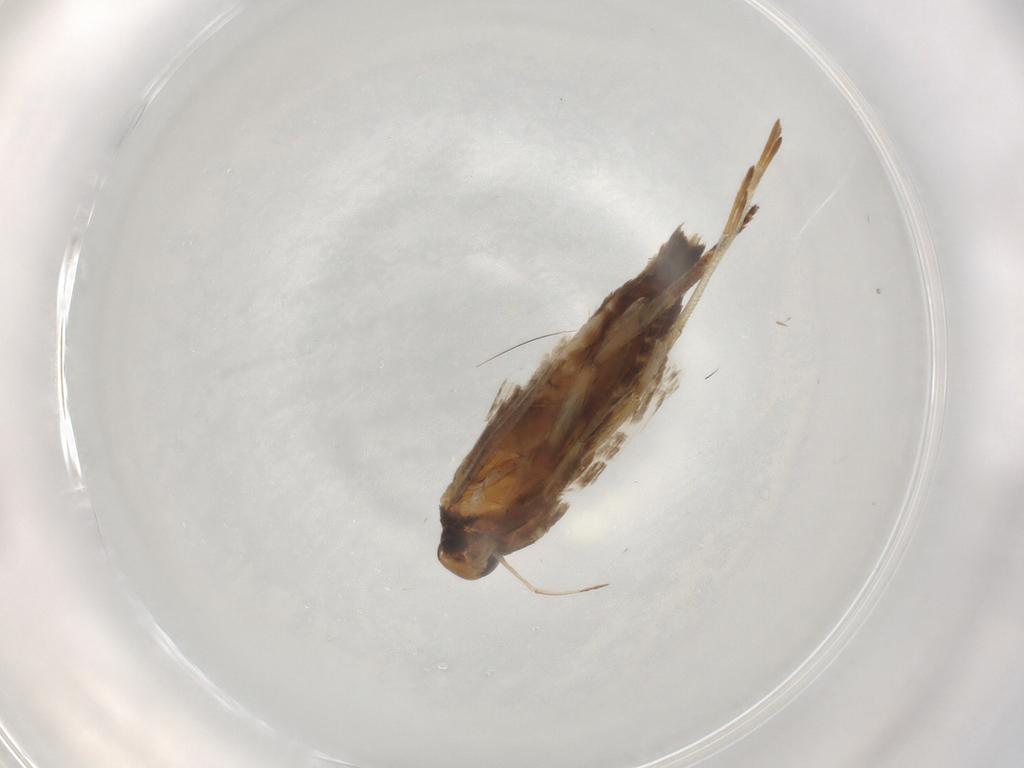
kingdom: Animalia
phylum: Arthropoda
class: Insecta
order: Lepidoptera
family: Gelechiidae
